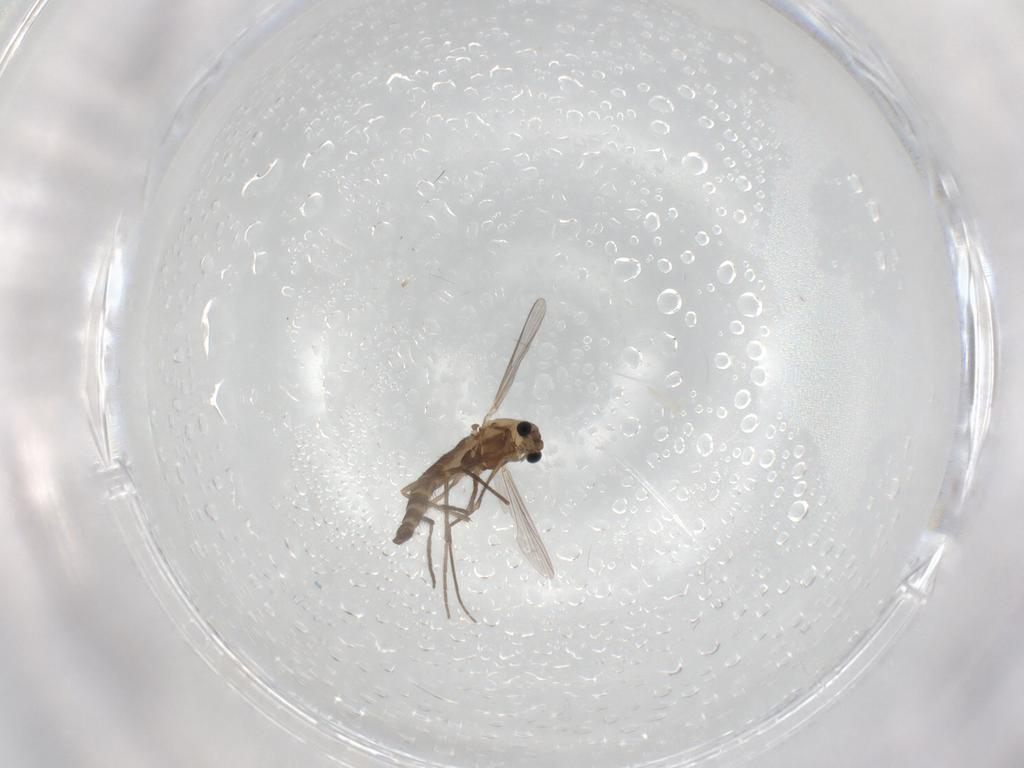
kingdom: Animalia
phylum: Arthropoda
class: Insecta
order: Diptera
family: Chironomidae
